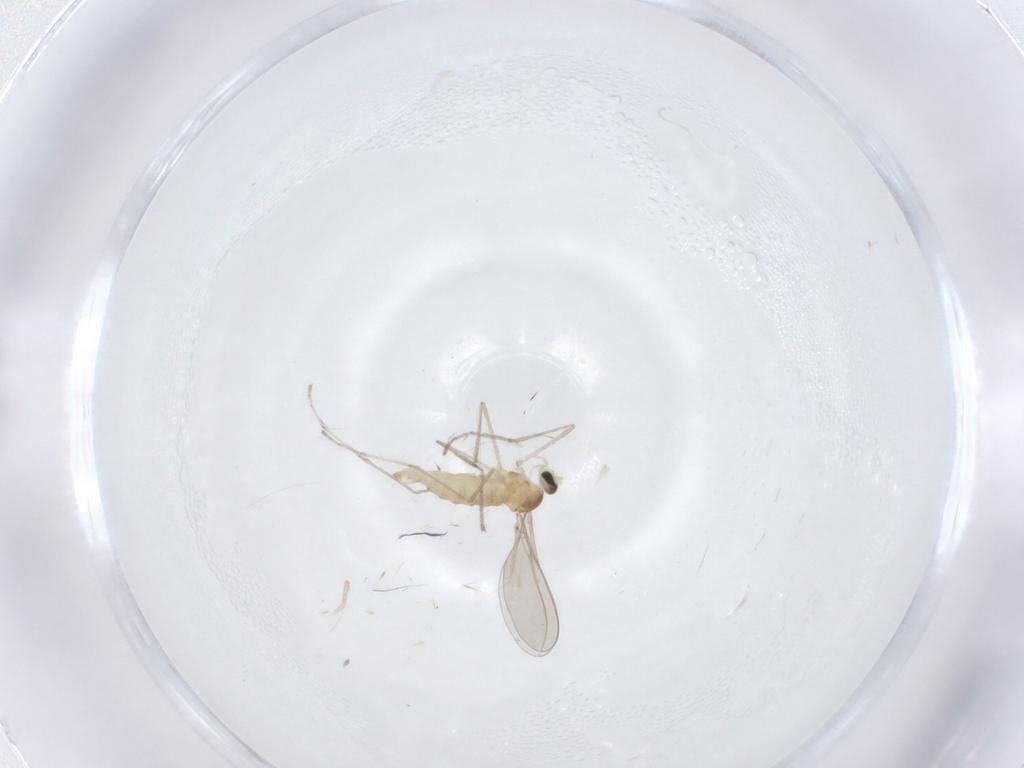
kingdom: Animalia
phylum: Arthropoda
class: Insecta
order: Diptera
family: Cecidomyiidae
